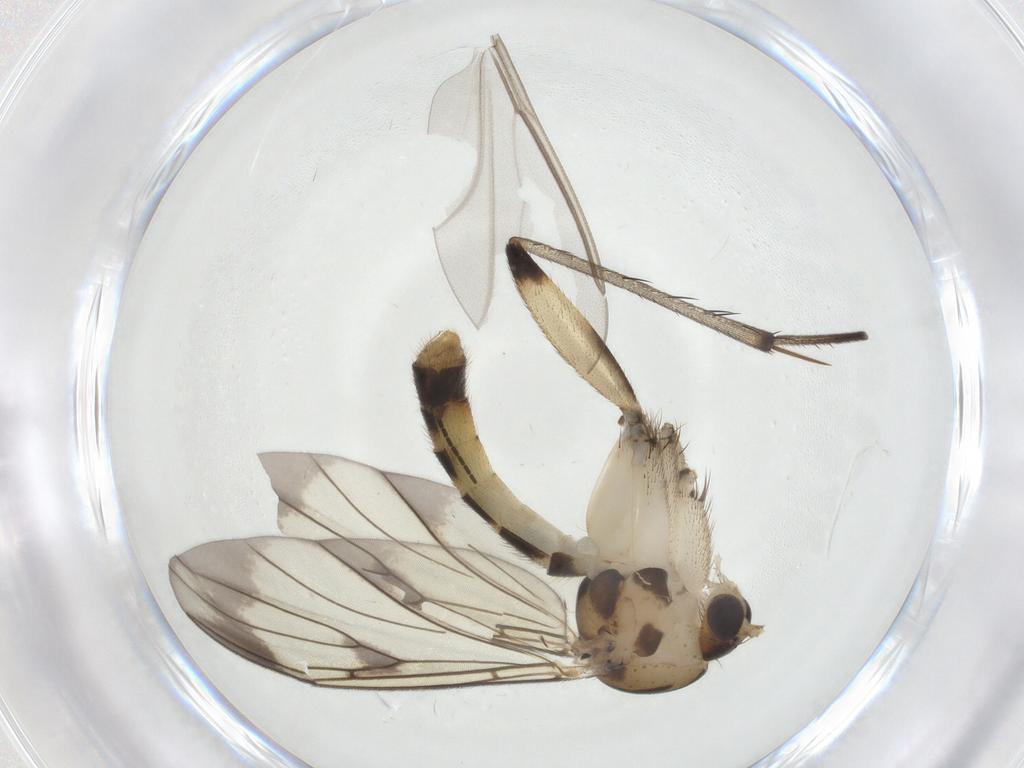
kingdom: Animalia
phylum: Arthropoda
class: Insecta
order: Diptera
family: Mycetophilidae
